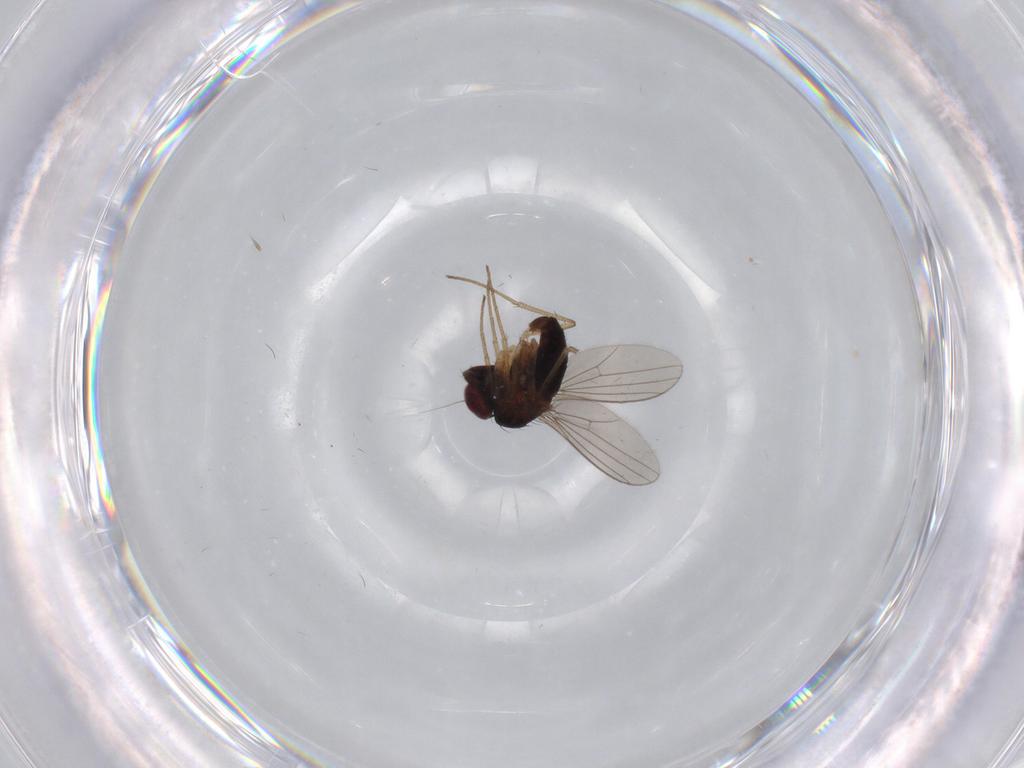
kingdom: Animalia
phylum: Arthropoda
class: Insecta
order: Diptera
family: Dolichopodidae
